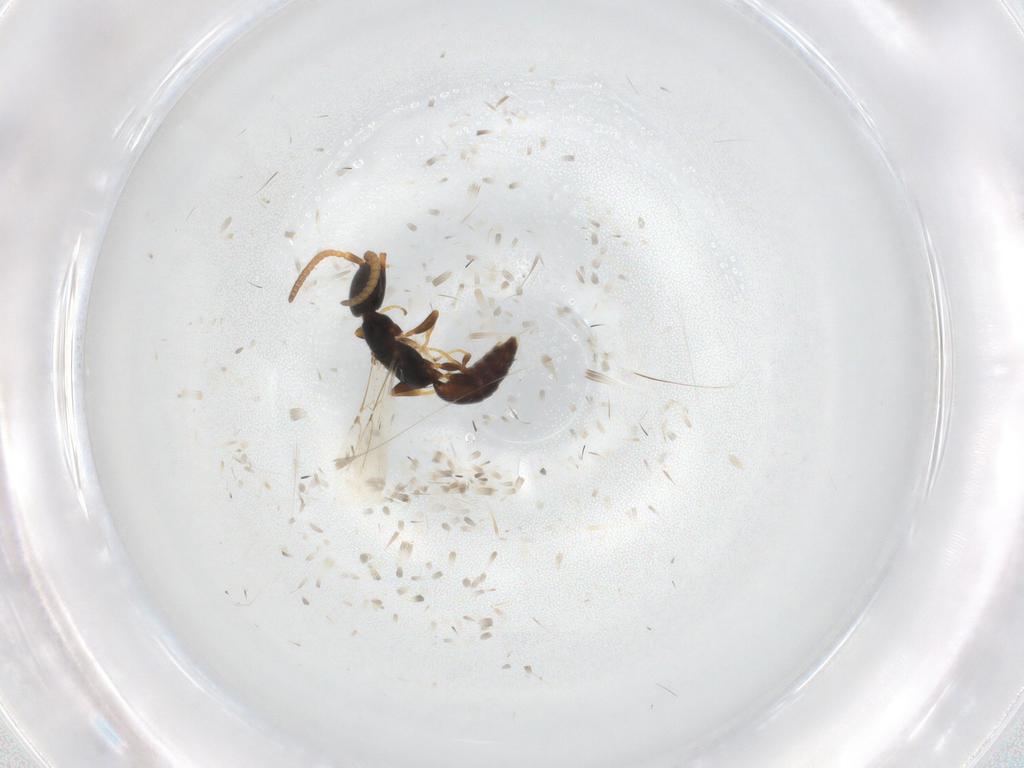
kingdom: Animalia
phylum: Arthropoda
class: Insecta
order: Hymenoptera
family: Bethylidae
